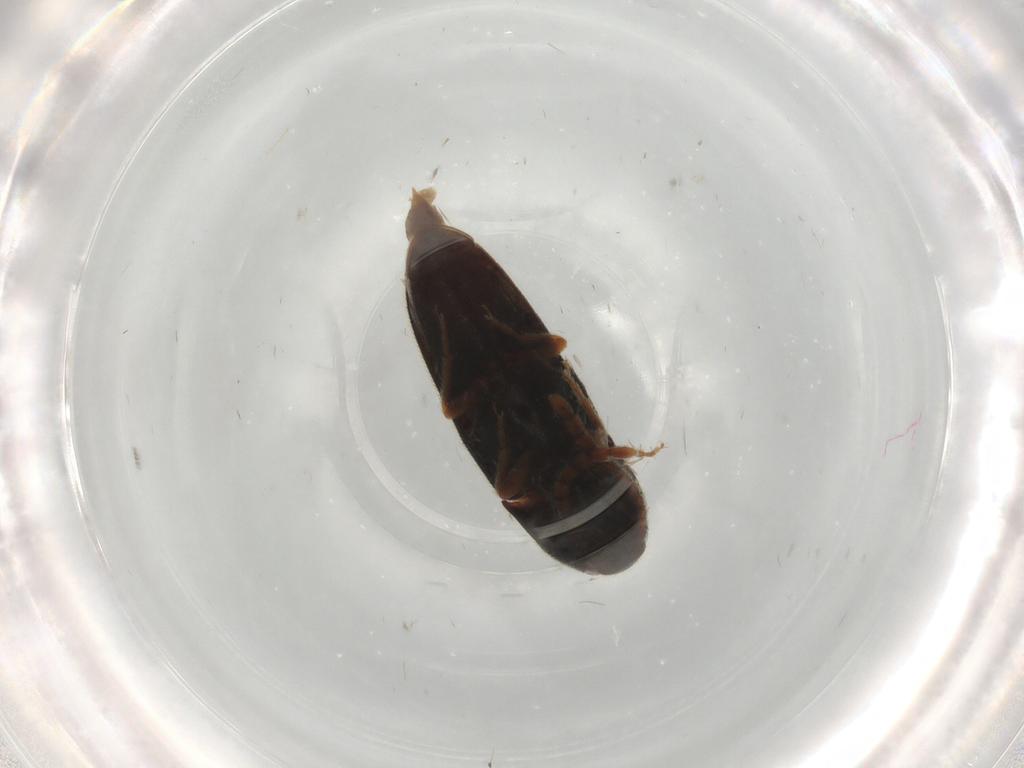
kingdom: Animalia
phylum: Arthropoda
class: Insecta
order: Coleoptera
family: Elateridae
